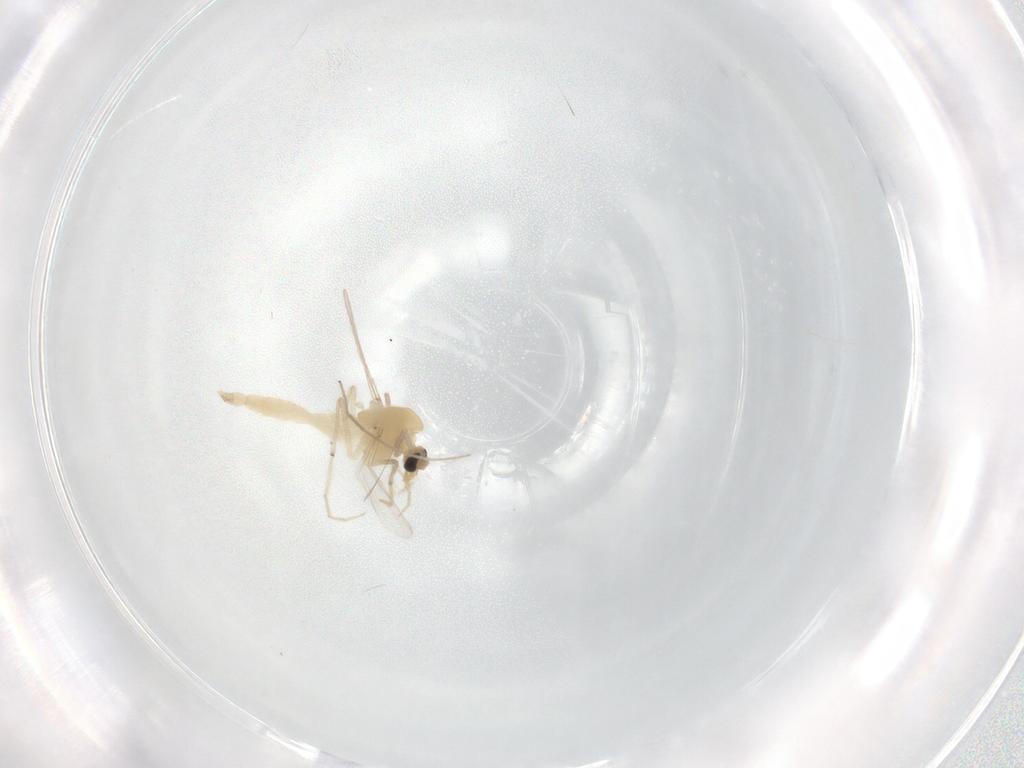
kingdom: Animalia
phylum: Arthropoda
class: Insecta
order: Diptera
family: Chironomidae
